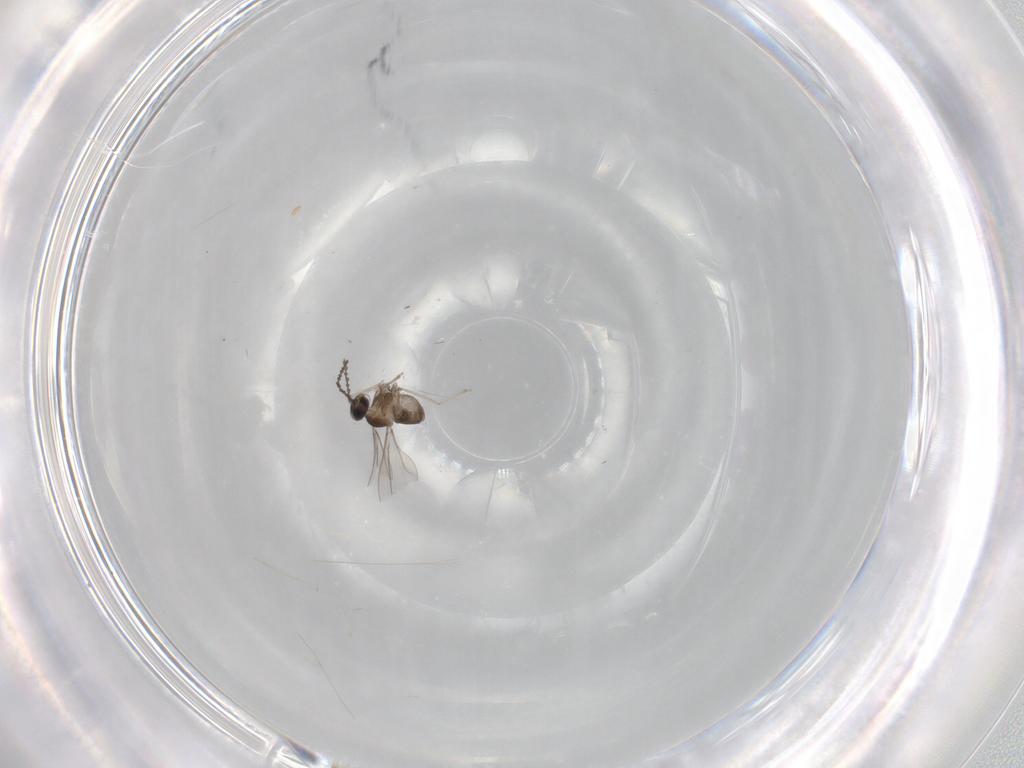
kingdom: Animalia
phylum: Arthropoda
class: Insecta
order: Diptera
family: Cecidomyiidae
